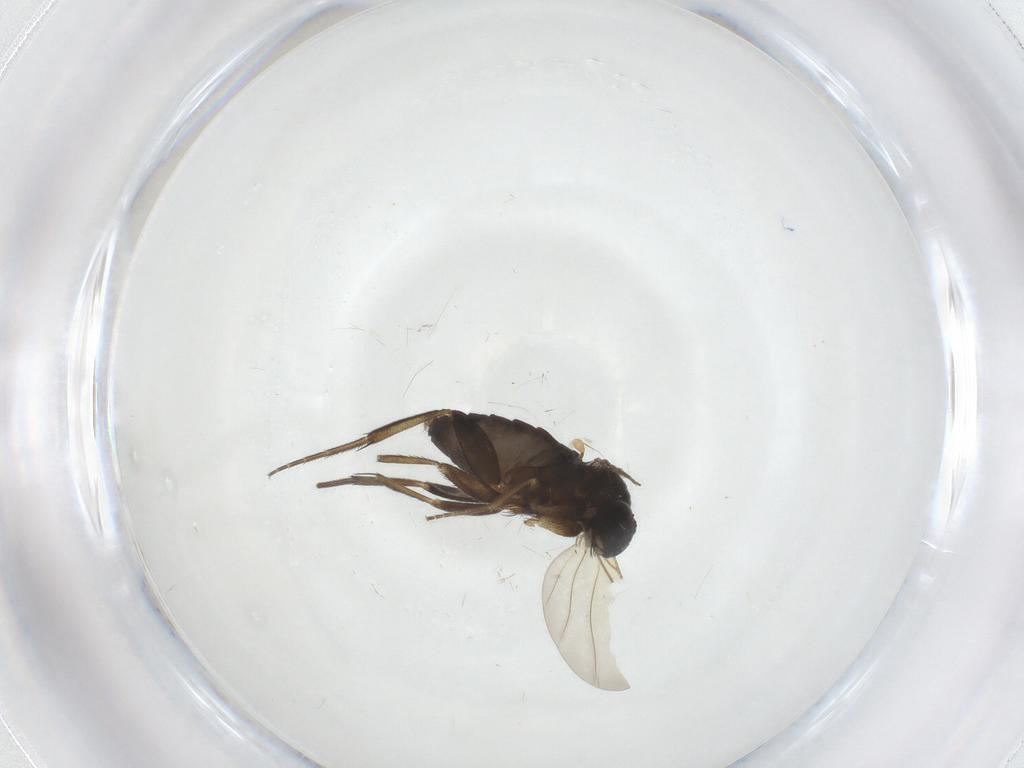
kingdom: Animalia
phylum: Arthropoda
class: Insecta
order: Diptera
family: Phoridae
